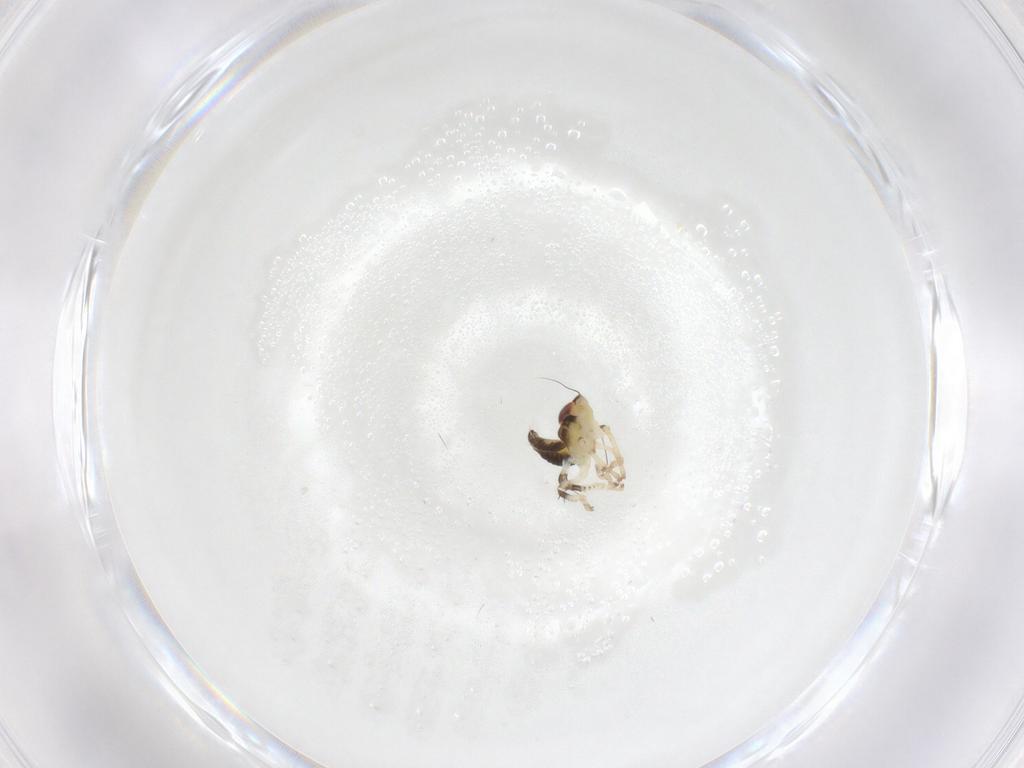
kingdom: Animalia
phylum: Arthropoda
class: Insecta
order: Hemiptera
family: Cicadellidae
